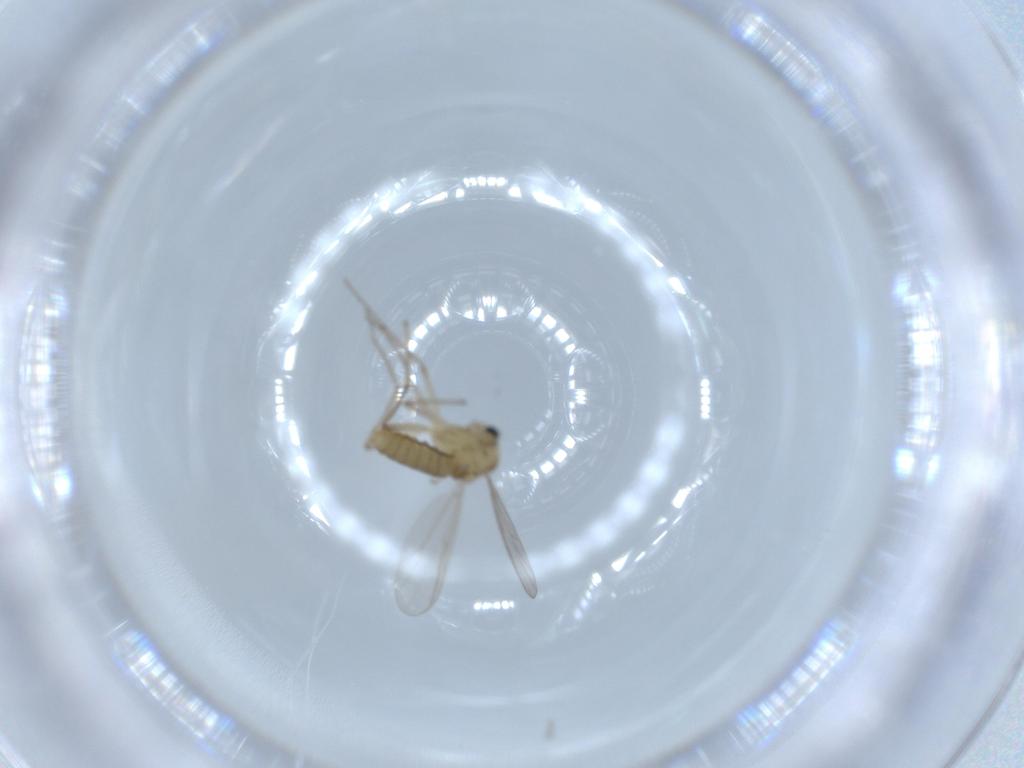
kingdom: Animalia
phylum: Arthropoda
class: Insecta
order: Diptera
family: Chironomidae
